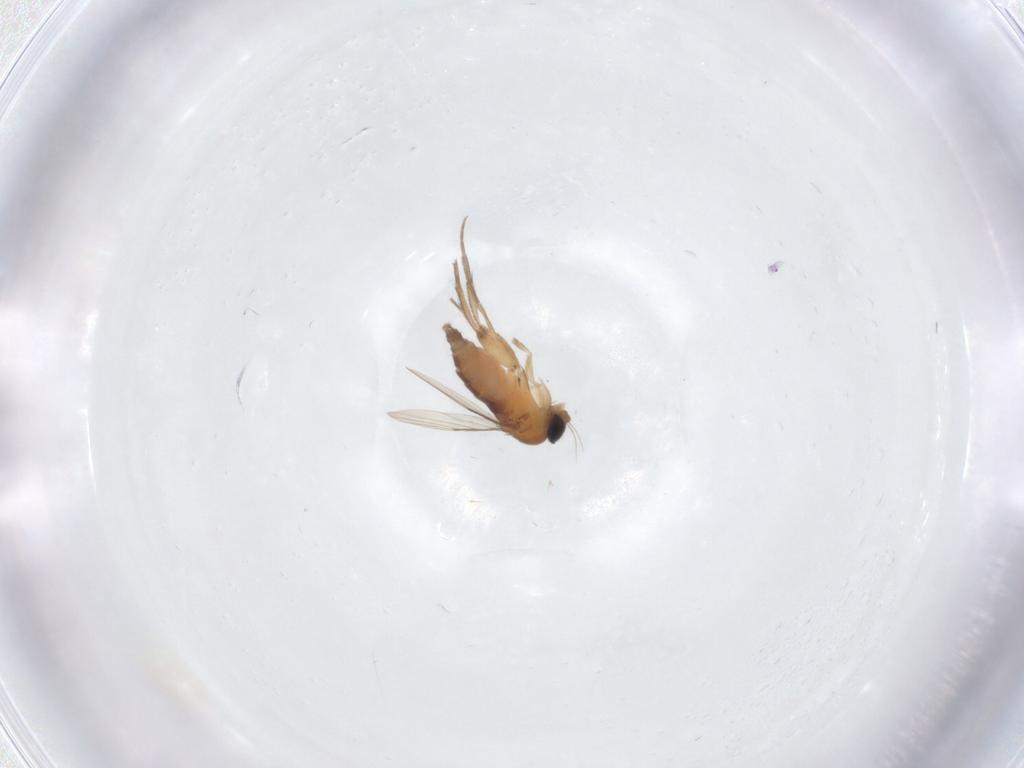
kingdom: Animalia
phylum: Arthropoda
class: Insecta
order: Diptera
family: Phoridae
